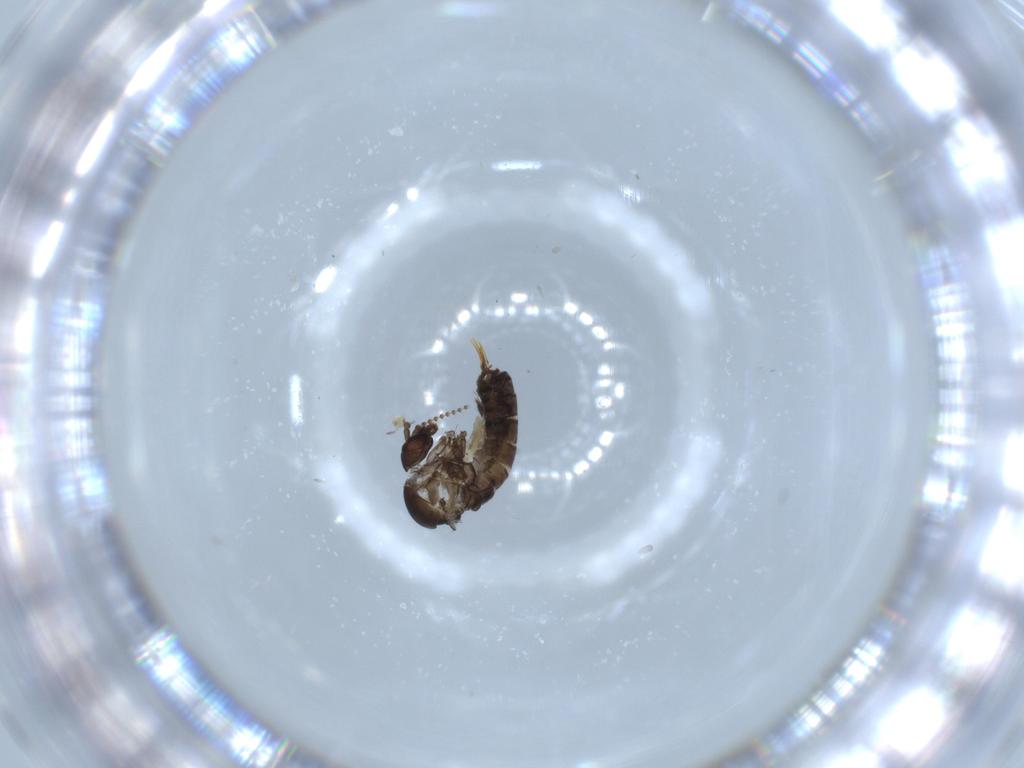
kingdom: Animalia
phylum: Arthropoda
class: Insecta
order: Diptera
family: Psychodidae
